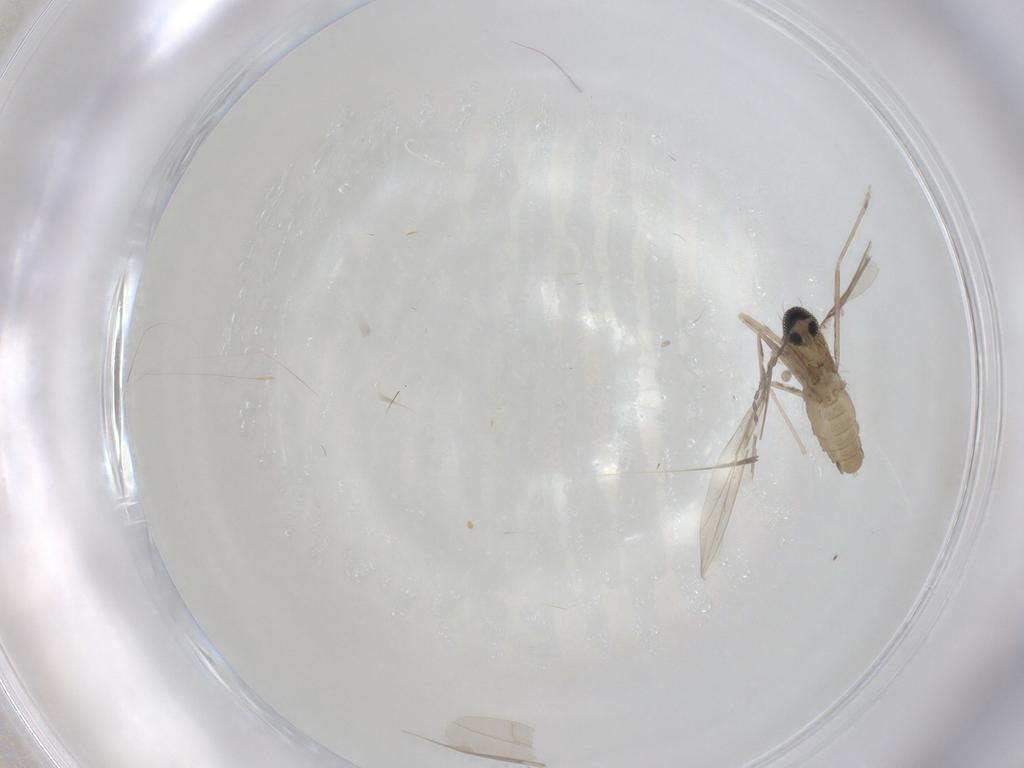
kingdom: Animalia
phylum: Arthropoda
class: Insecta
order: Diptera
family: Cecidomyiidae
